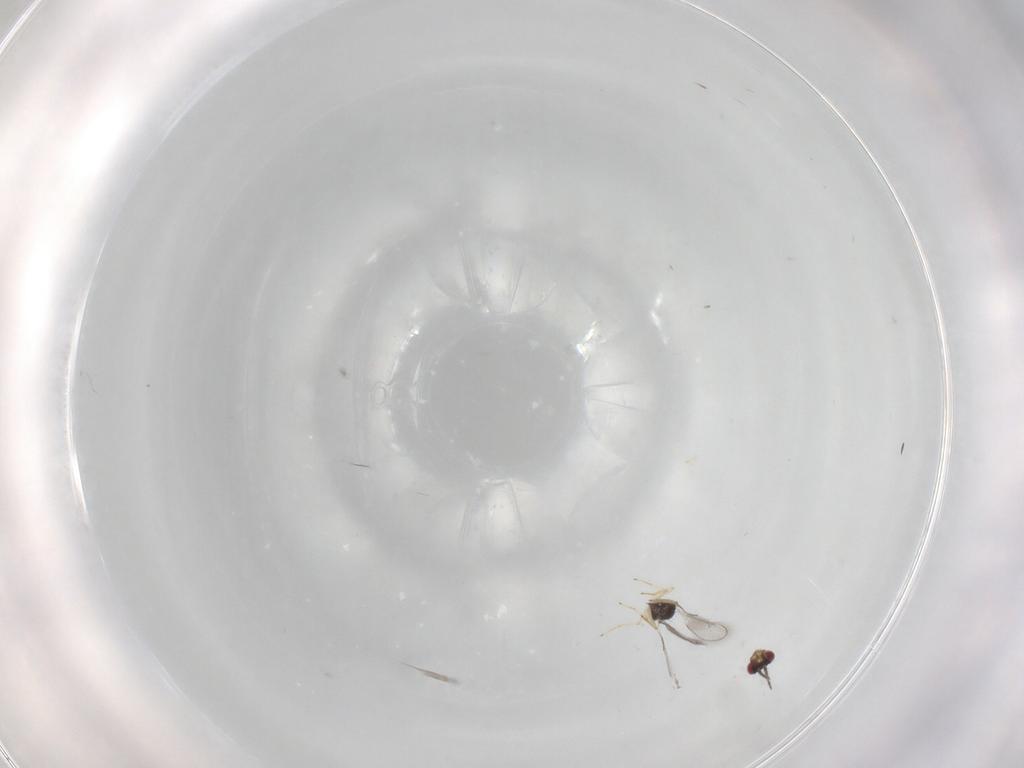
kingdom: Animalia
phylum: Arthropoda
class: Insecta
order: Hymenoptera
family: Eulophidae
